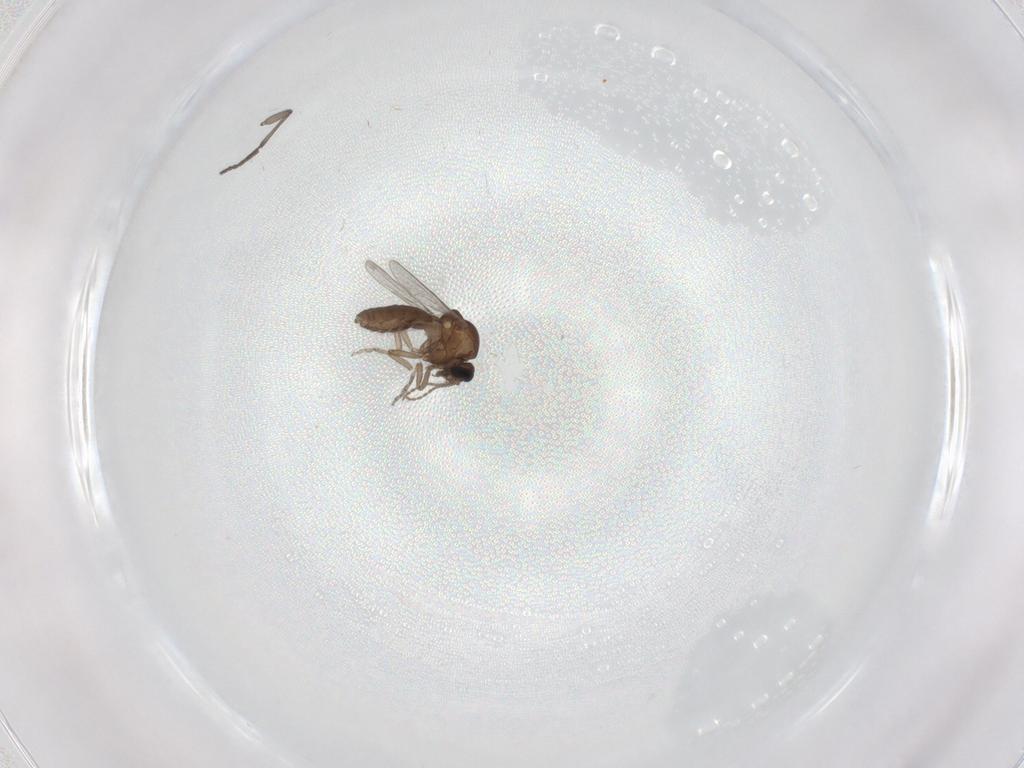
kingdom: Animalia
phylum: Arthropoda
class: Insecta
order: Diptera
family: Ceratopogonidae
